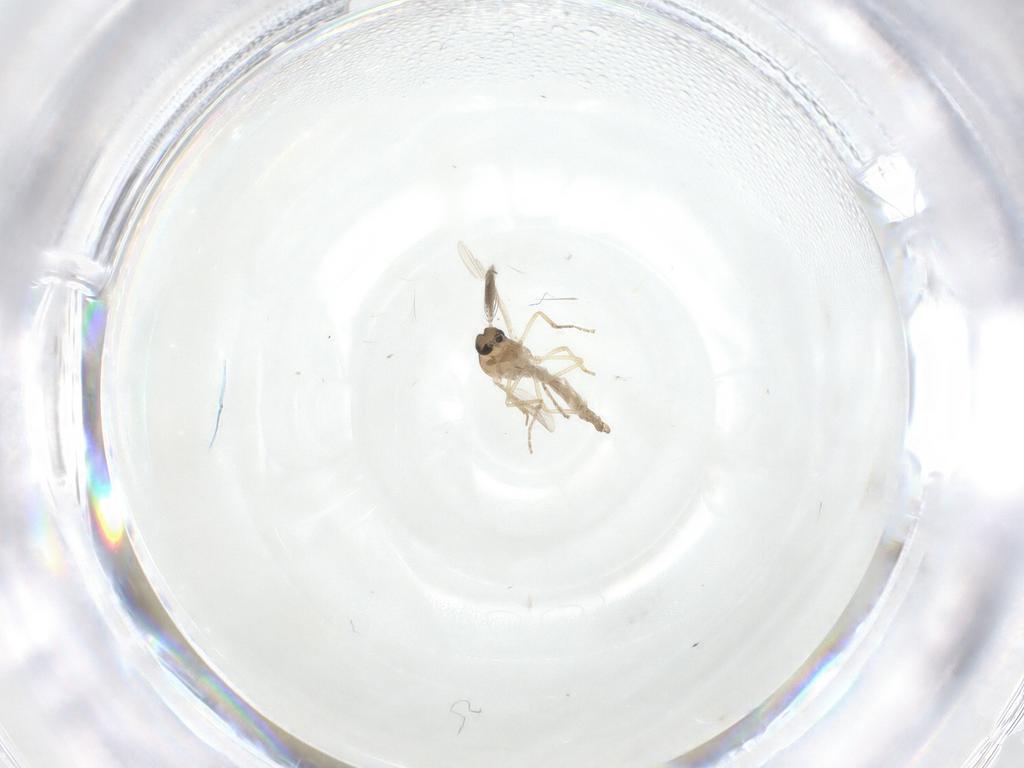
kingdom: Animalia
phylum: Arthropoda
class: Insecta
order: Diptera
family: Ceratopogonidae
